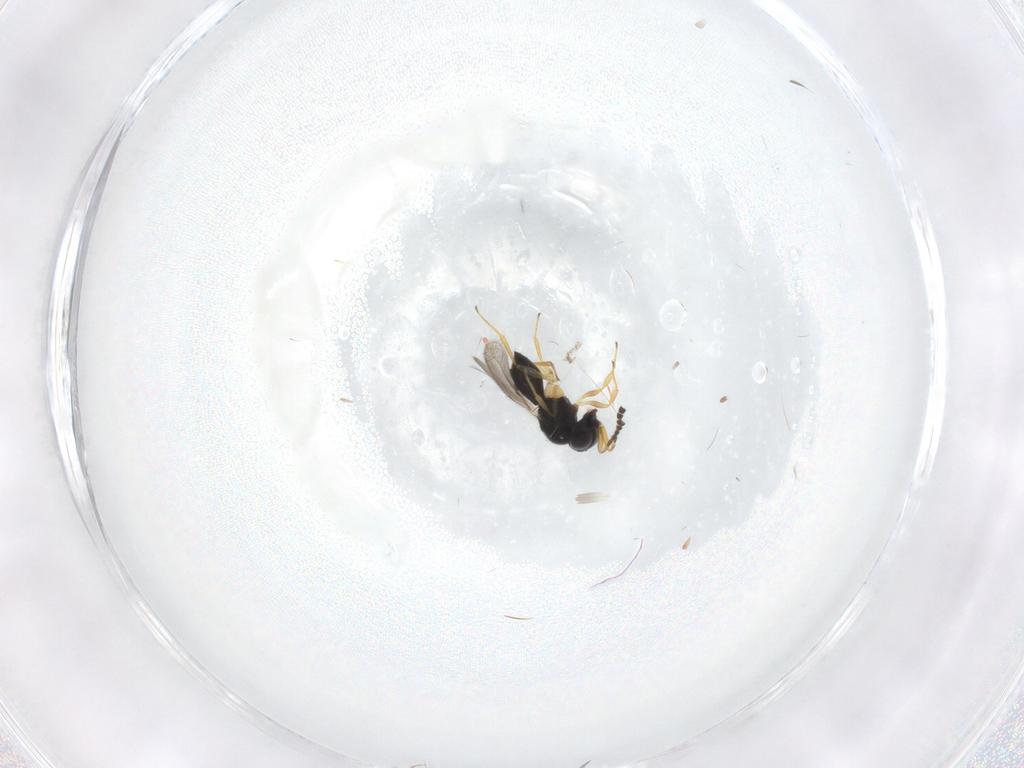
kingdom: Animalia
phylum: Arthropoda
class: Insecta
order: Hymenoptera
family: Scelionidae
